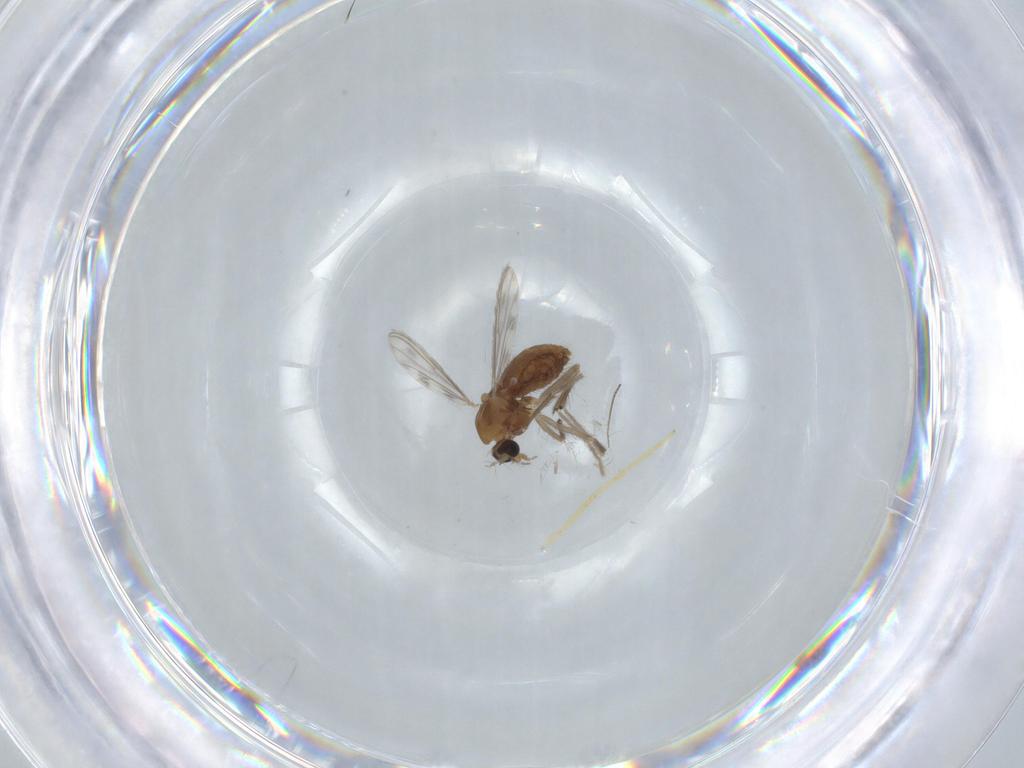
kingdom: Animalia
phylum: Arthropoda
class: Insecta
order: Diptera
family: Chironomidae
